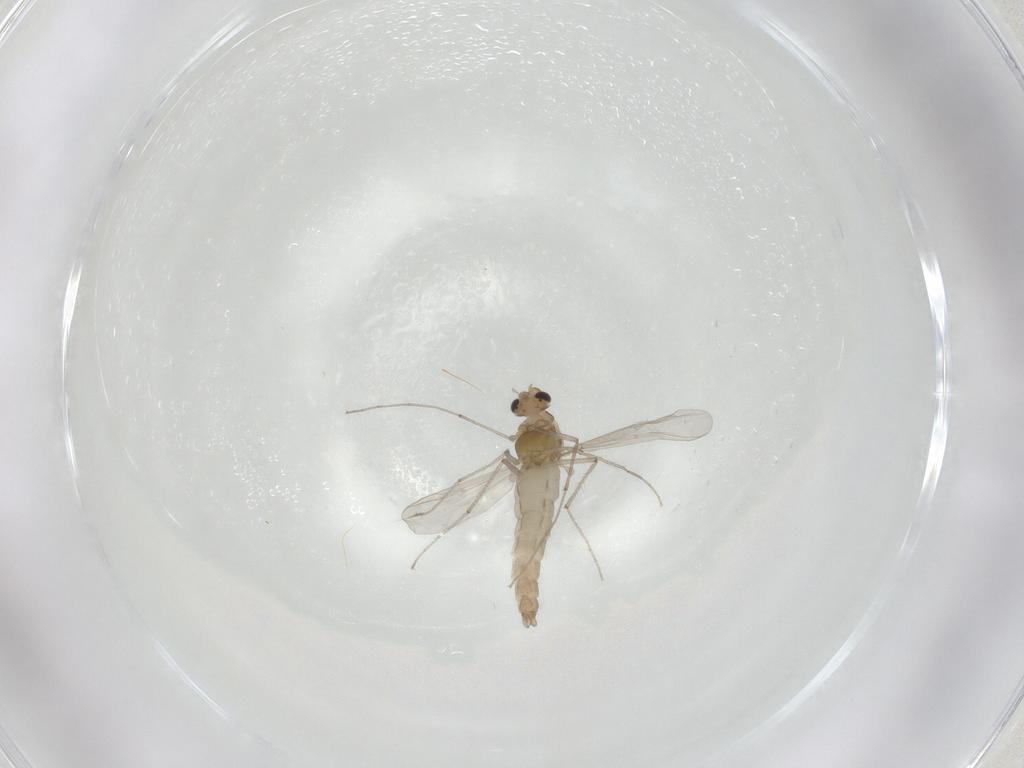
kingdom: Animalia
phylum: Arthropoda
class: Insecta
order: Diptera
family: Chironomidae
